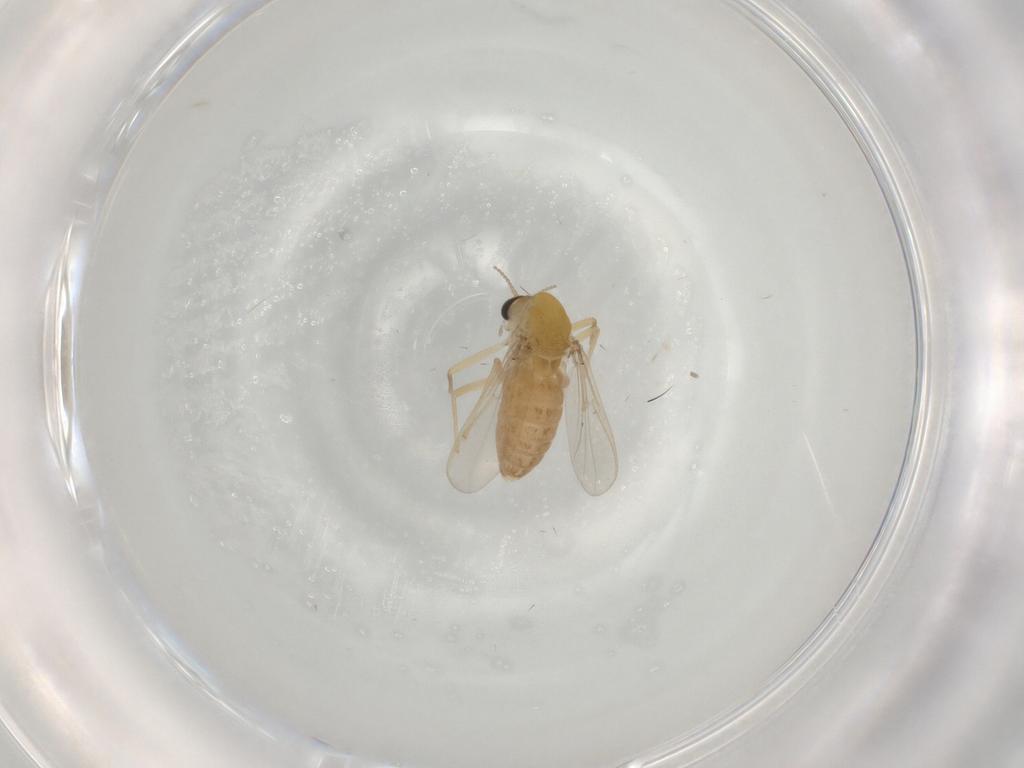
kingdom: Animalia
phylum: Arthropoda
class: Insecta
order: Diptera
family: Chironomidae
